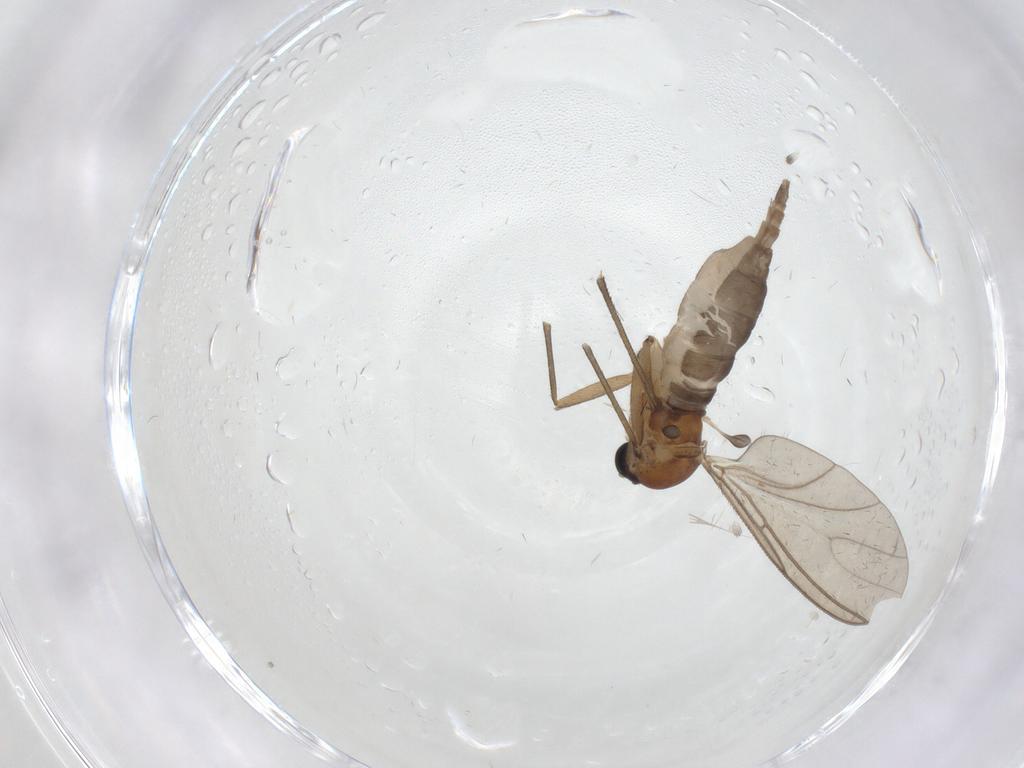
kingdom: Animalia
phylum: Arthropoda
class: Insecta
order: Diptera
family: Sciaridae
